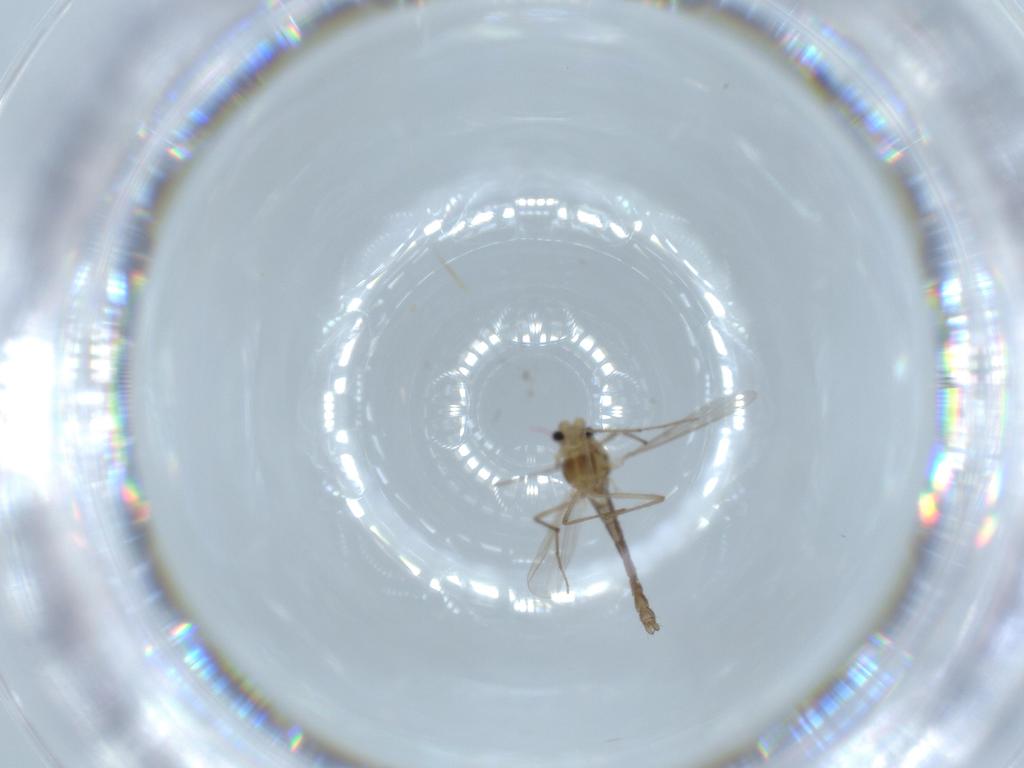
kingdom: Animalia
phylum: Arthropoda
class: Insecta
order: Diptera
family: Chironomidae
